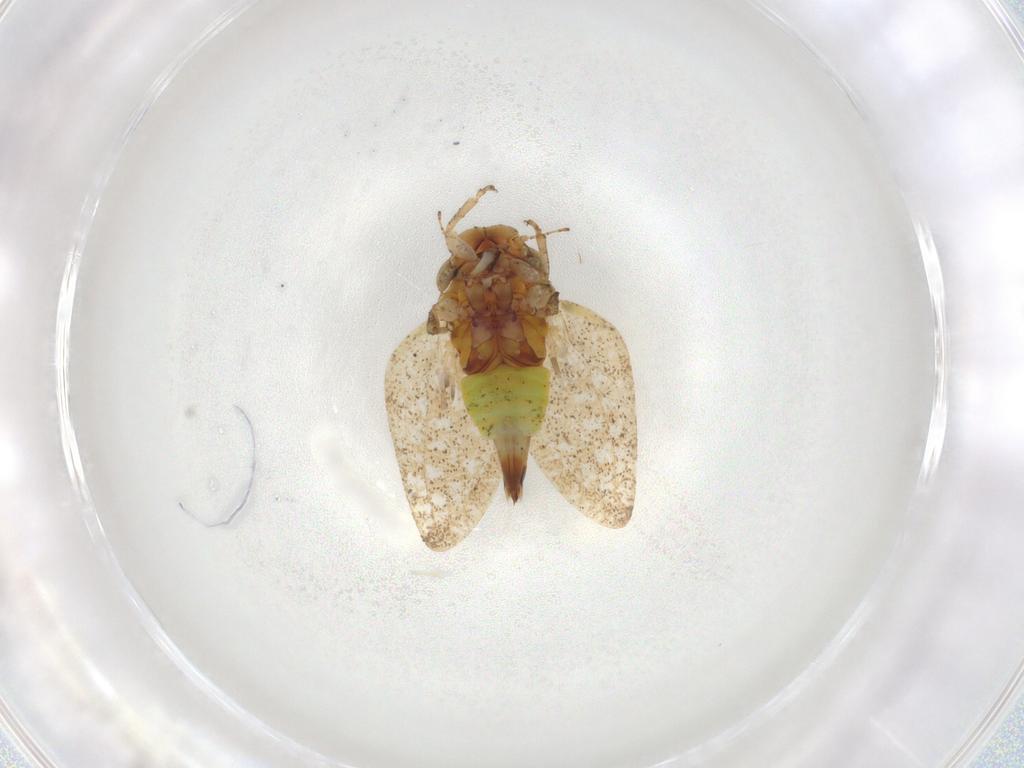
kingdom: Animalia
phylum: Arthropoda
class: Insecta
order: Hemiptera
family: Aphididae
